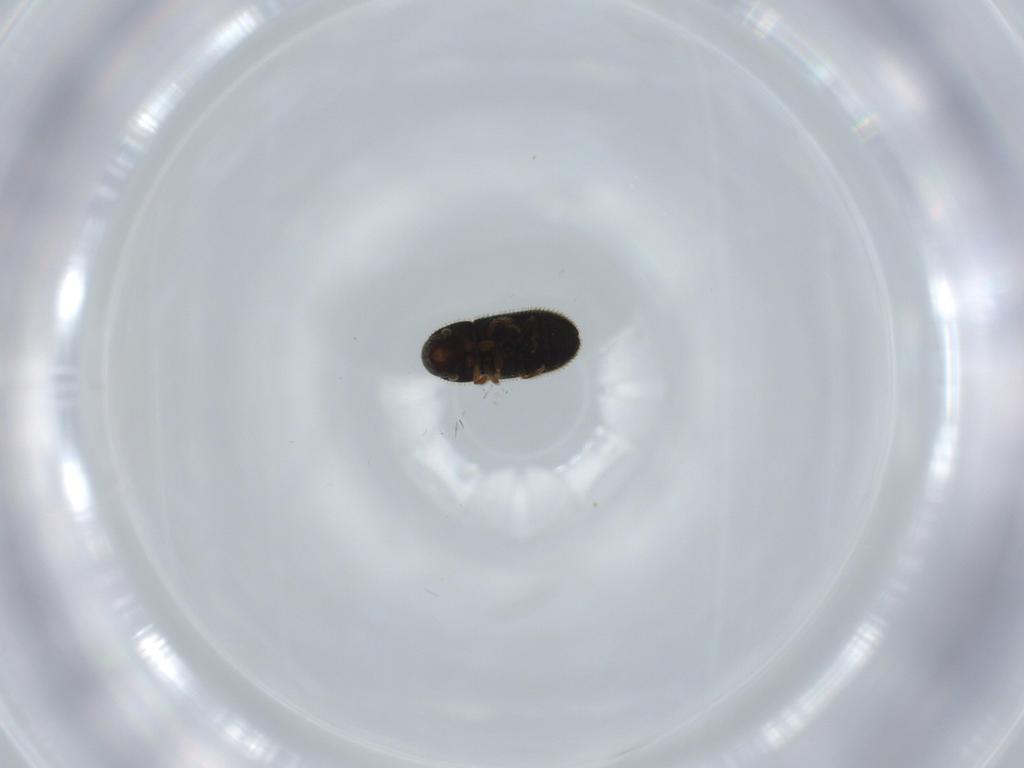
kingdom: Animalia
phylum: Arthropoda
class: Insecta
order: Coleoptera
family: Curculionidae
